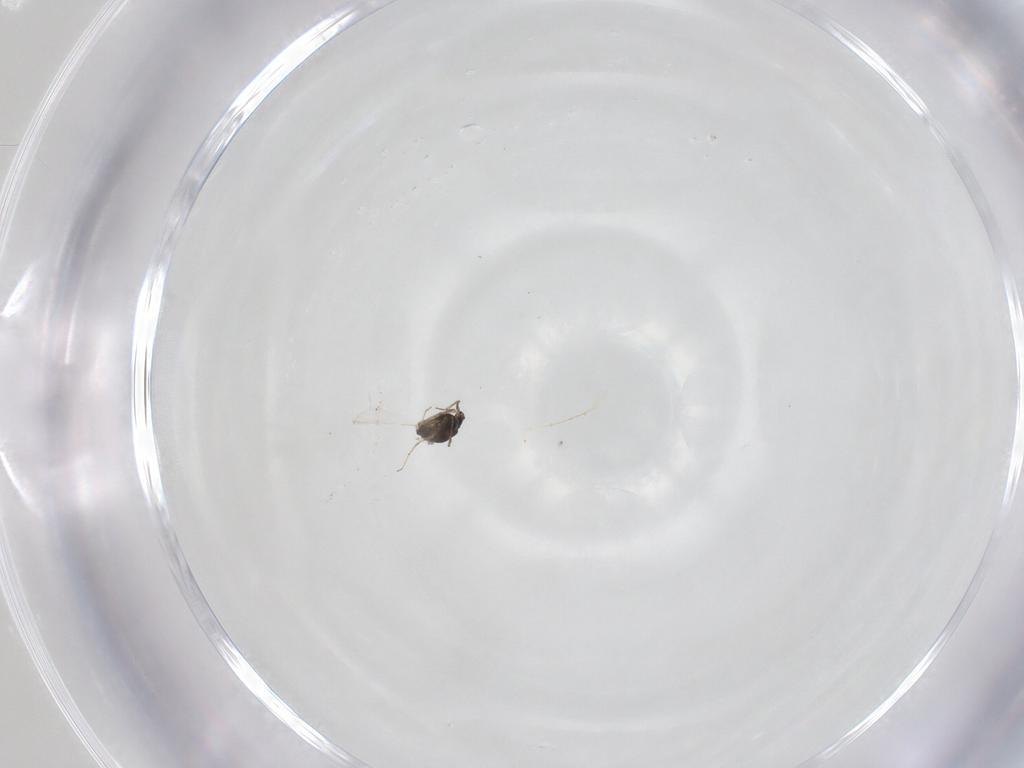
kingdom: Animalia
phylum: Arthropoda
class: Insecta
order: Diptera
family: Chironomidae
